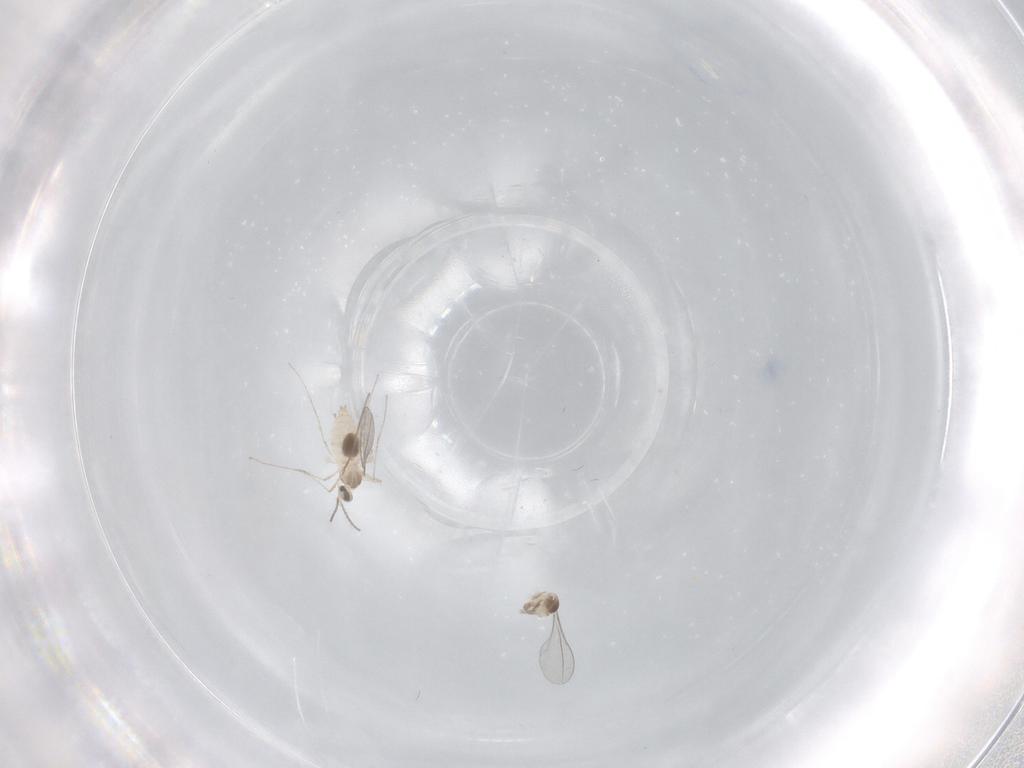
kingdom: Animalia
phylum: Arthropoda
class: Insecta
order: Diptera
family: Cecidomyiidae
